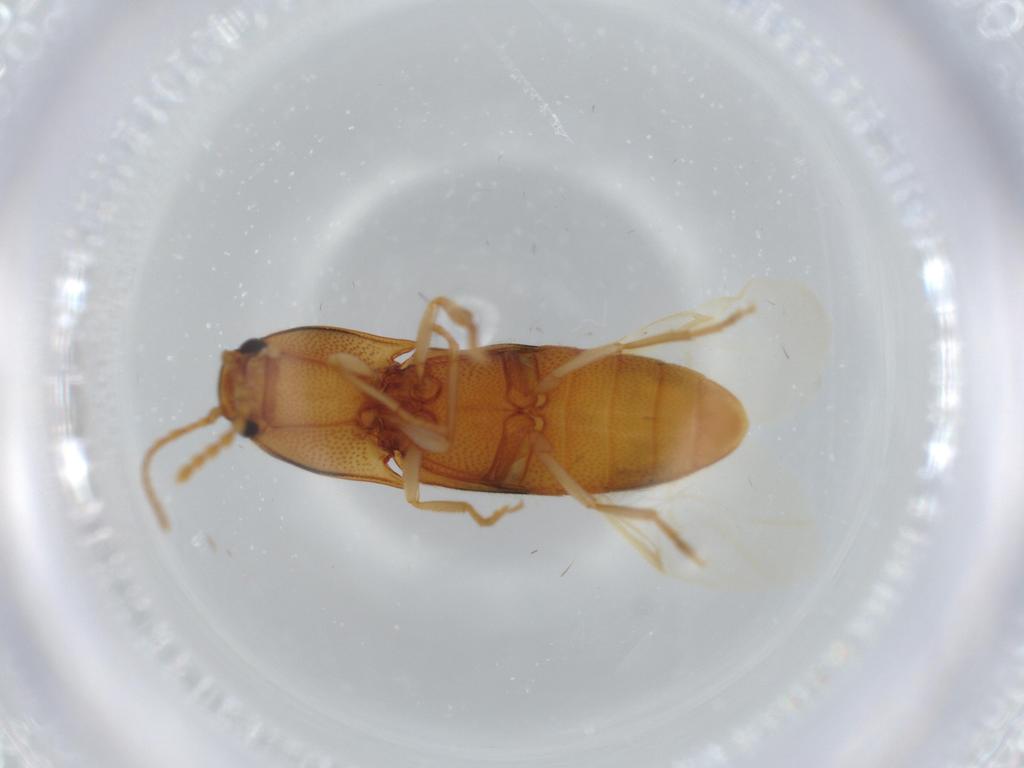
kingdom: Animalia
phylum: Arthropoda
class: Insecta
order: Coleoptera
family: Elateridae
